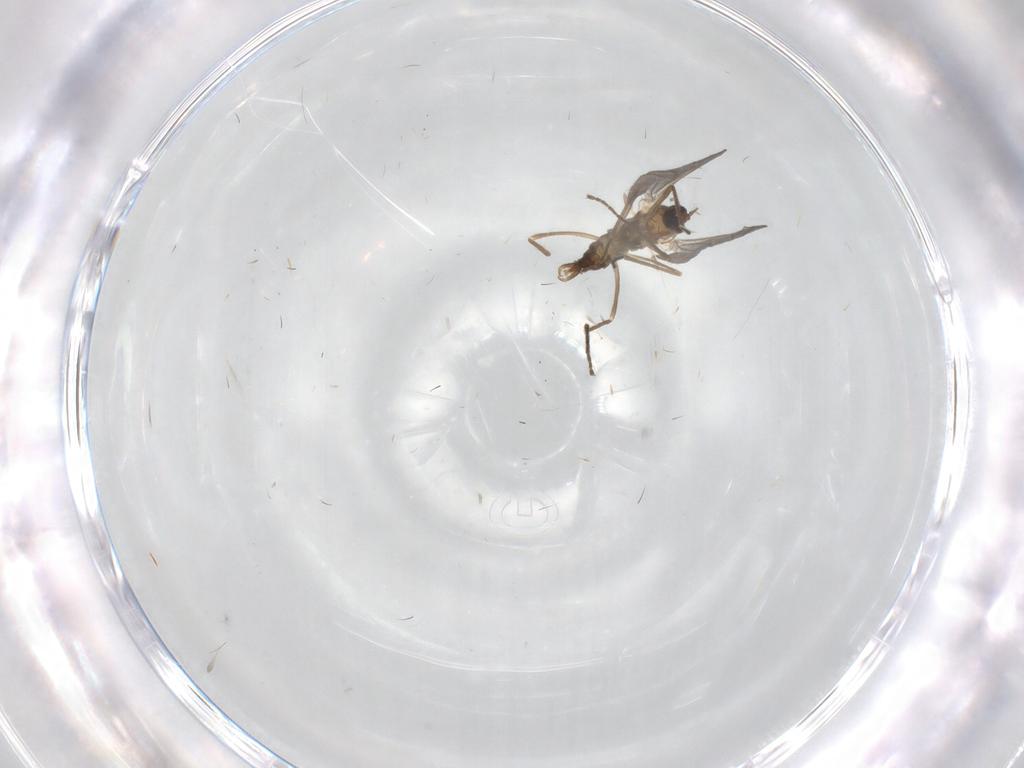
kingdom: Animalia
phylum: Arthropoda
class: Insecta
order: Diptera
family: Cecidomyiidae
